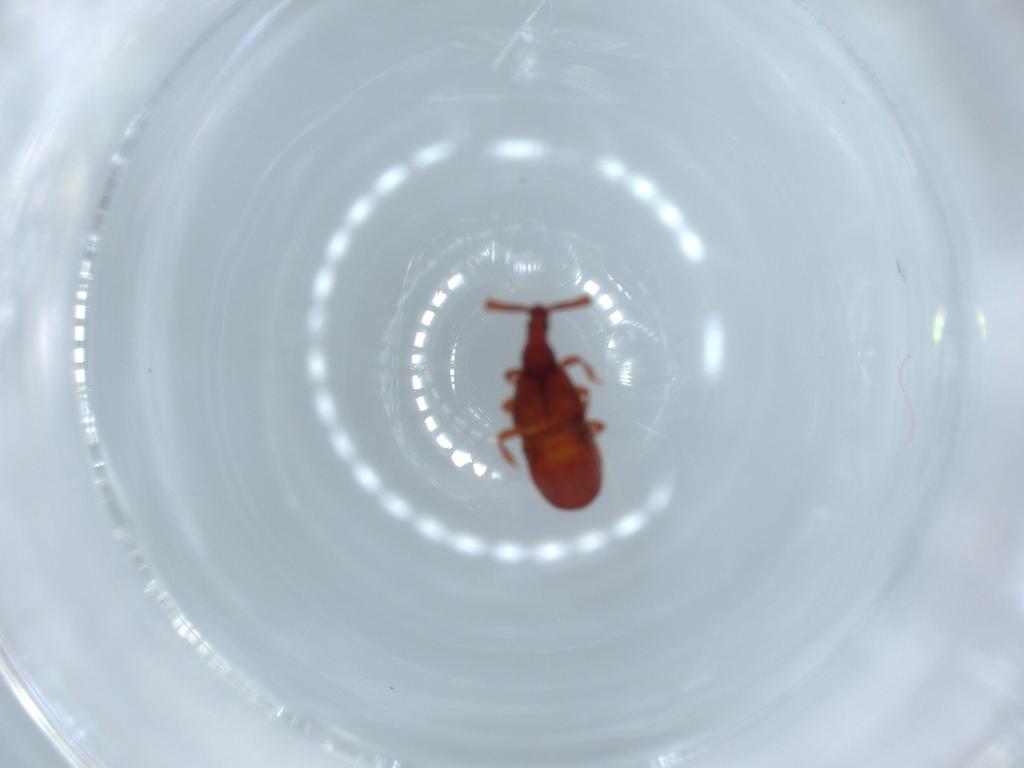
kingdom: Animalia
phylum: Arthropoda
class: Insecta
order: Coleoptera
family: Staphylinidae
